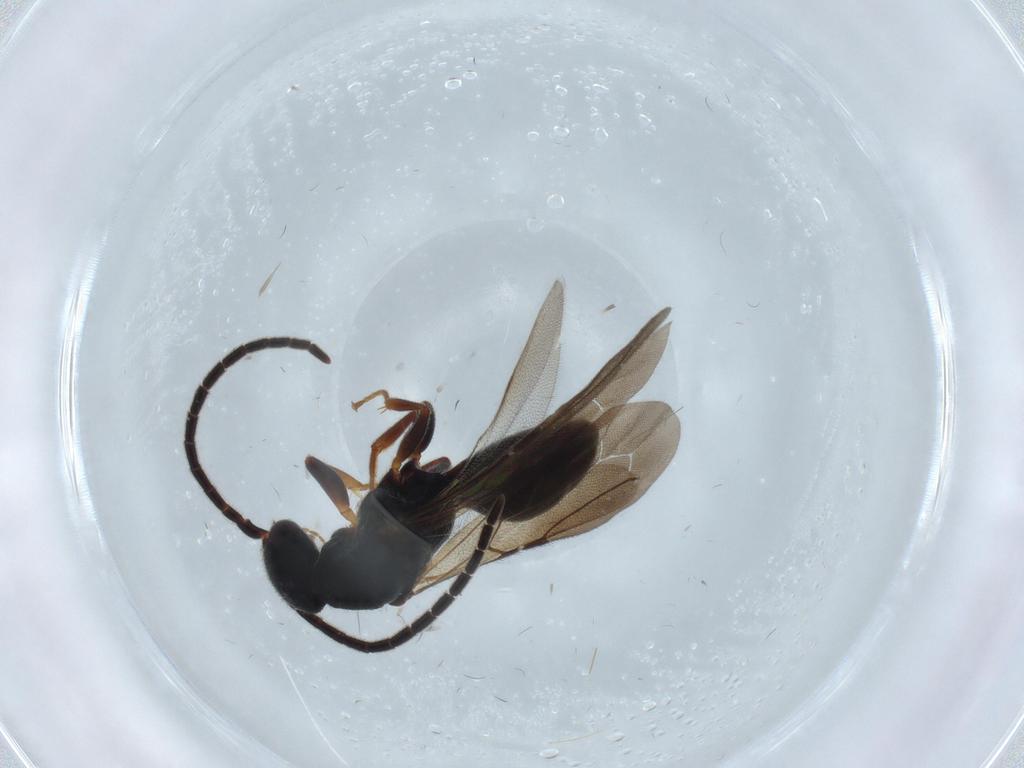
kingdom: Animalia
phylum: Arthropoda
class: Insecta
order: Hymenoptera
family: Bethylidae
